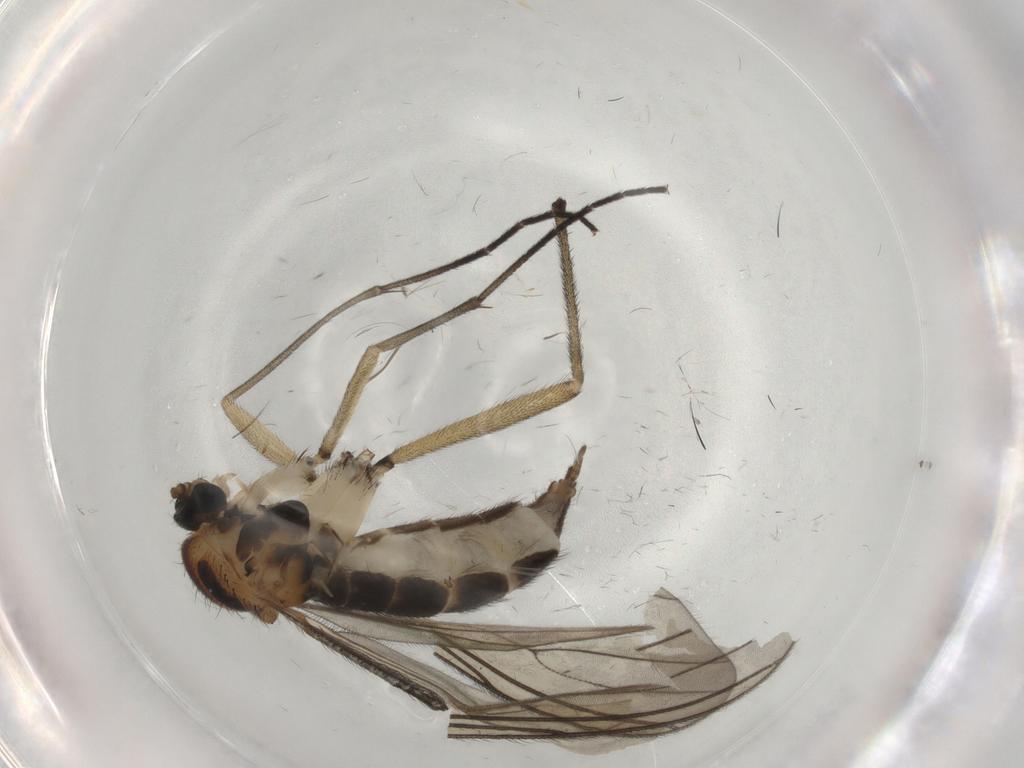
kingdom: Animalia
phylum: Arthropoda
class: Insecta
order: Diptera
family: Sciaridae
